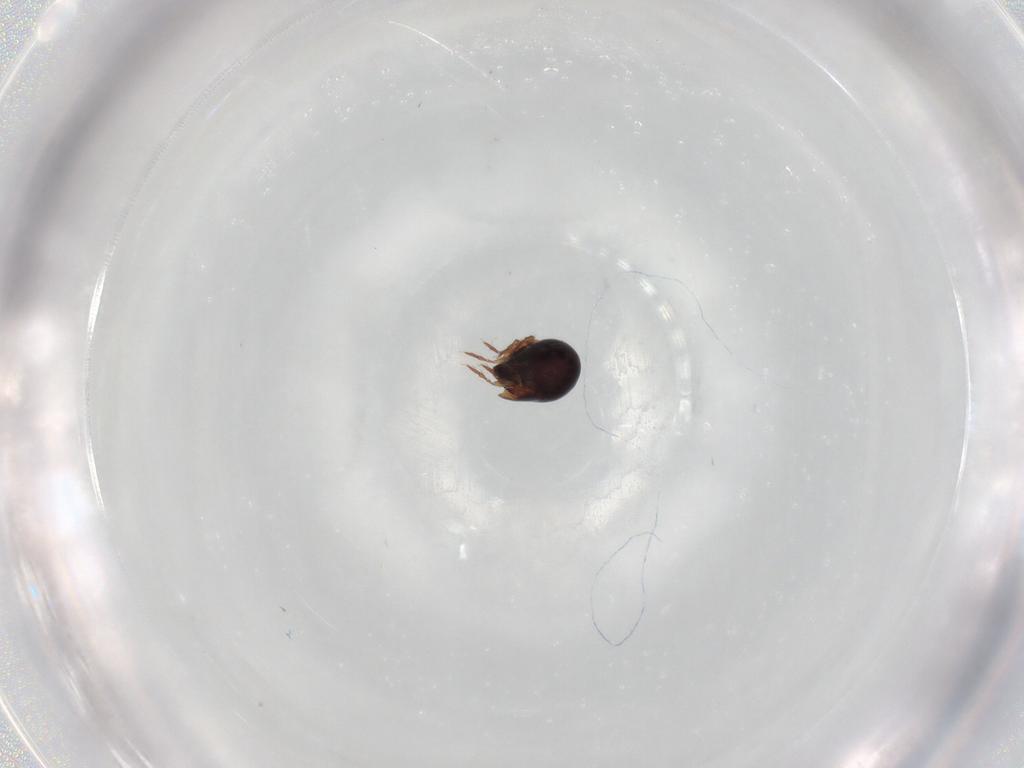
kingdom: Animalia
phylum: Arthropoda
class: Arachnida
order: Sarcoptiformes
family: Ceratozetidae
